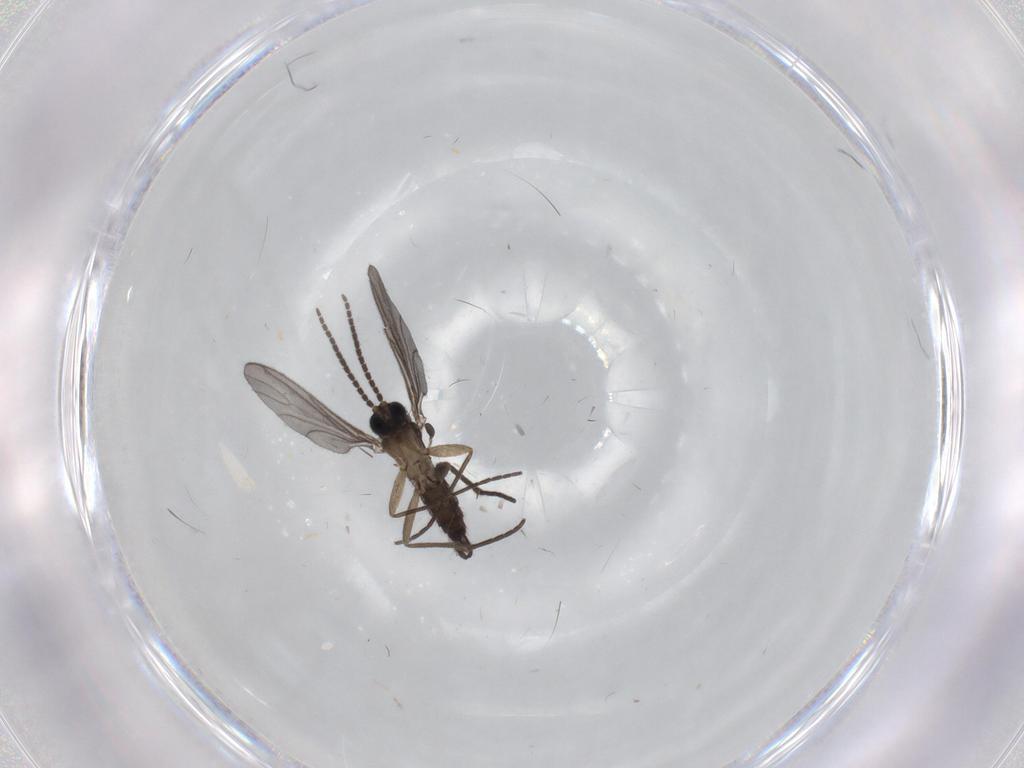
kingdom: Animalia
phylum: Arthropoda
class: Insecta
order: Diptera
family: Sciaridae
